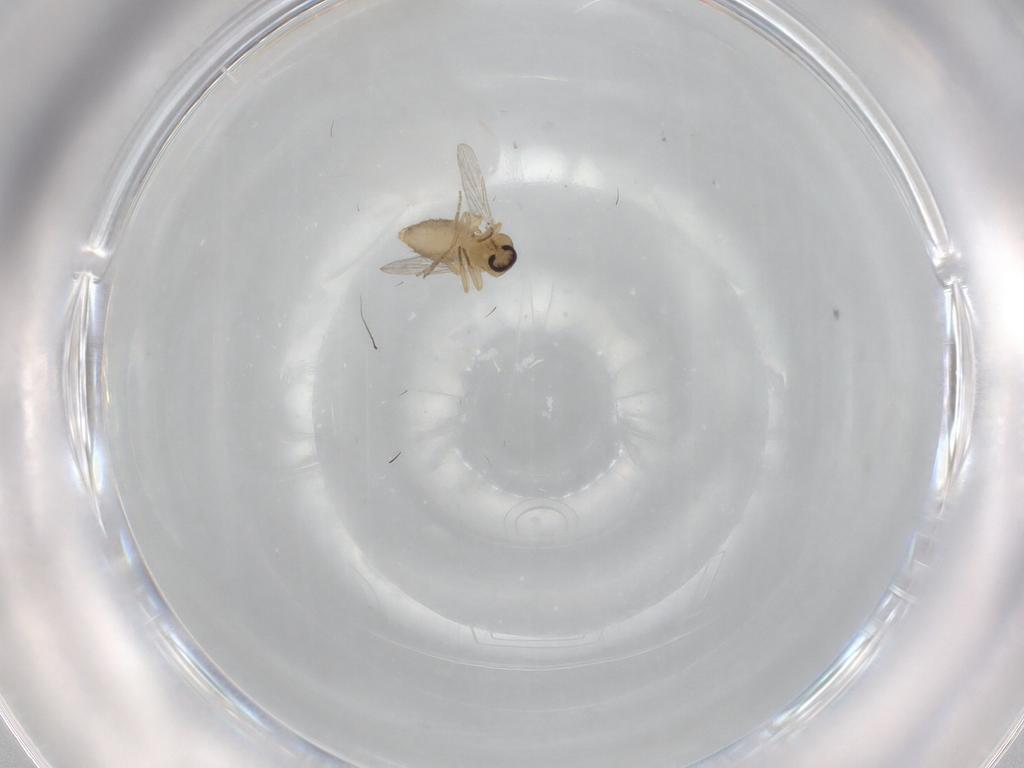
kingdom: Animalia
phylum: Arthropoda
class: Insecta
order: Diptera
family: Ceratopogonidae
